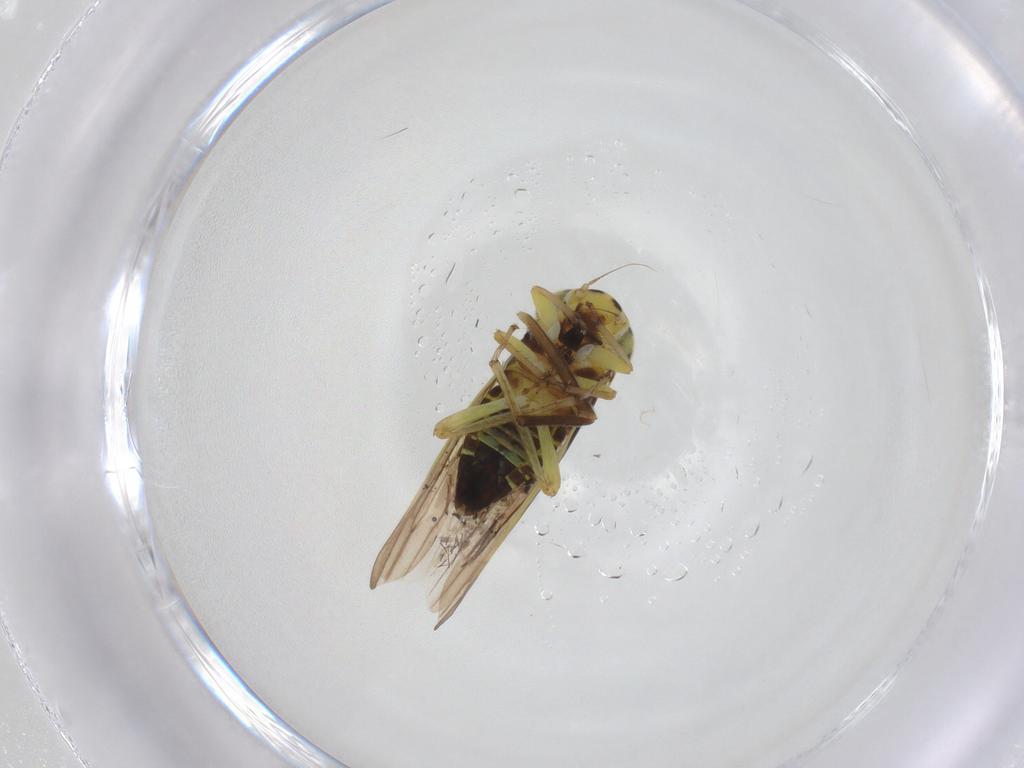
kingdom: Animalia
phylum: Arthropoda
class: Insecta
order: Hemiptera
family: Cicadellidae
